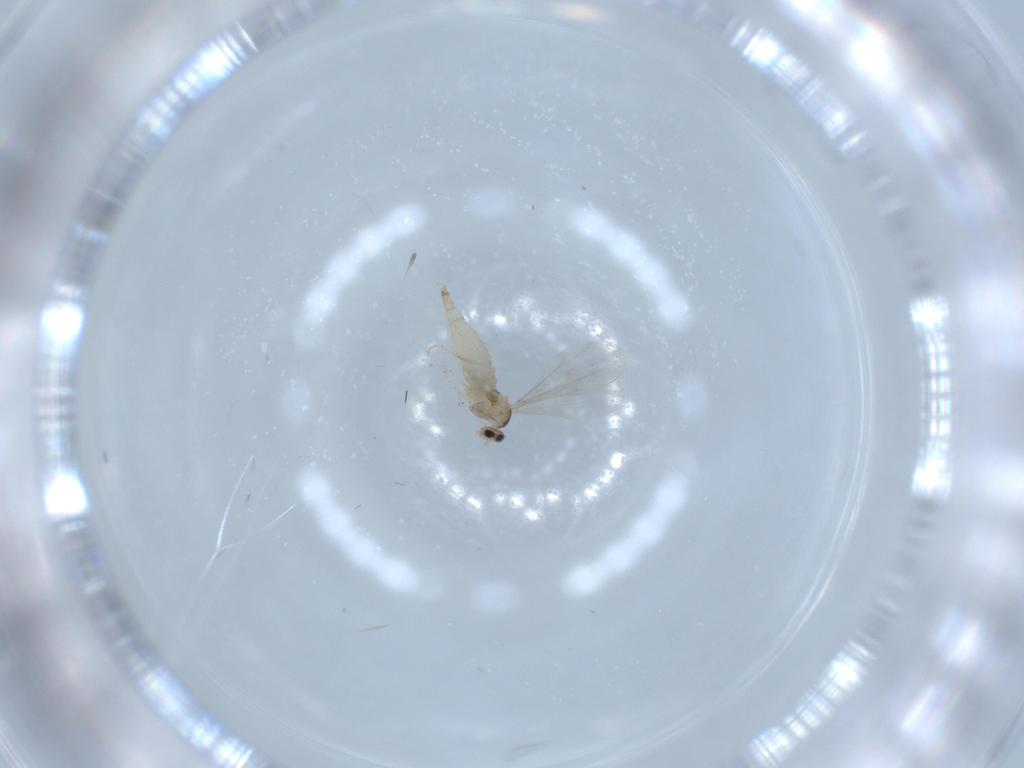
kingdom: Animalia
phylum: Arthropoda
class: Insecta
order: Diptera
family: Cecidomyiidae
